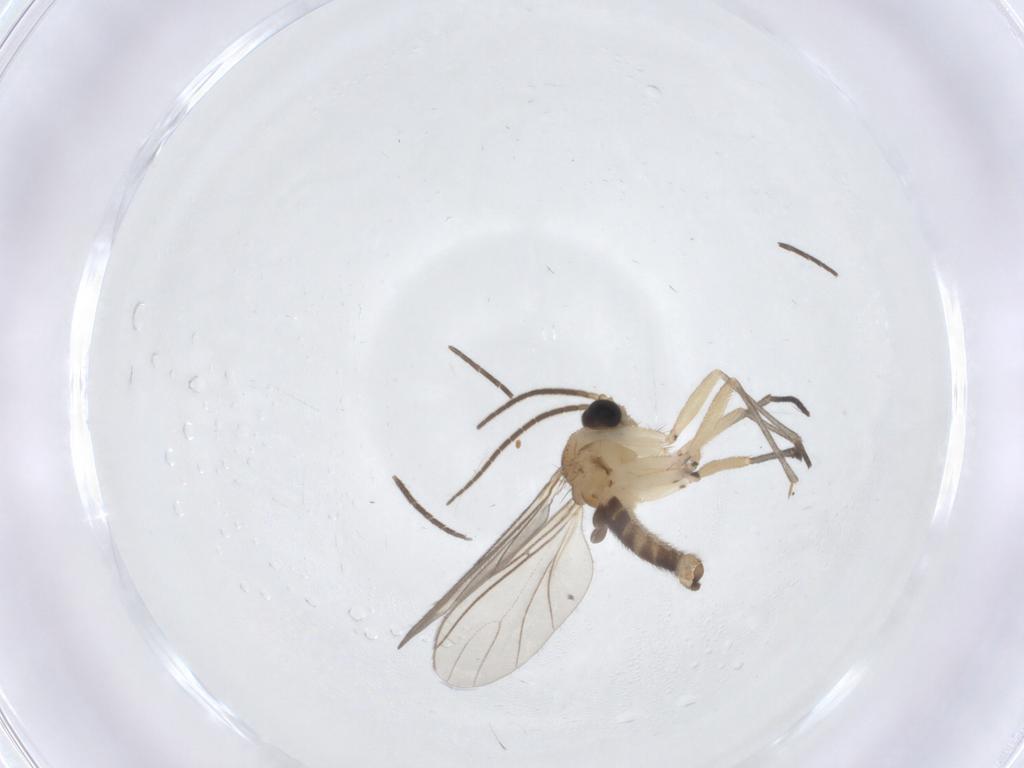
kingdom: Animalia
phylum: Arthropoda
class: Insecta
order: Diptera
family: Sciaridae
